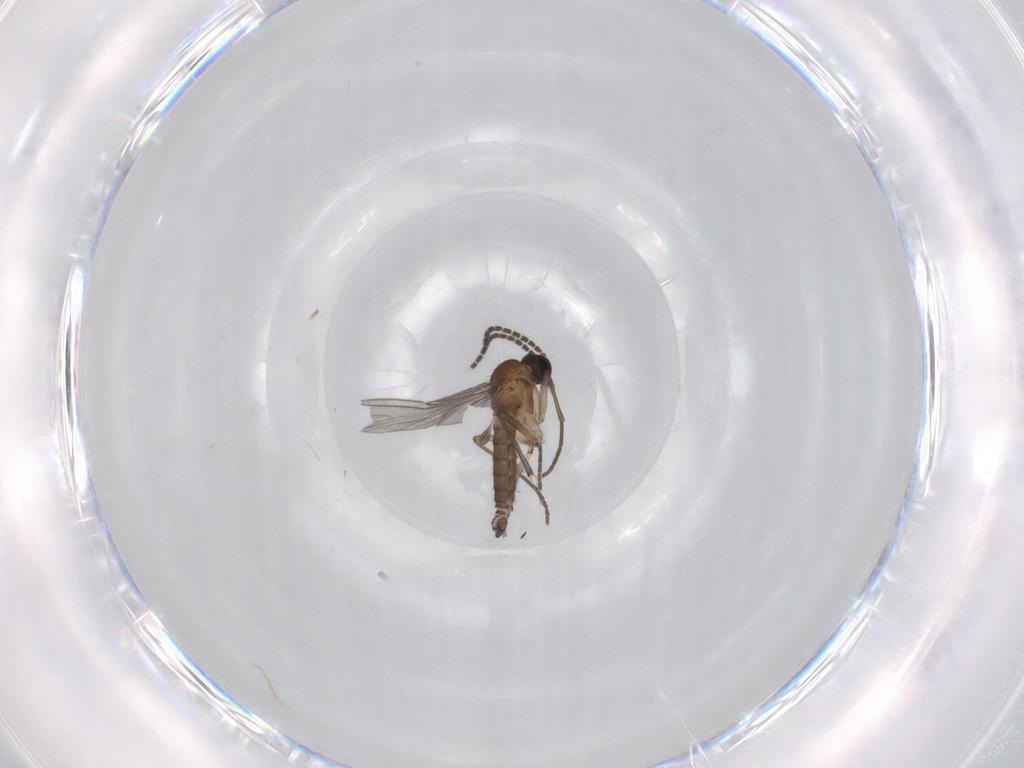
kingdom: Animalia
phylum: Arthropoda
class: Insecta
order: Diptera
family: Sciaridae
